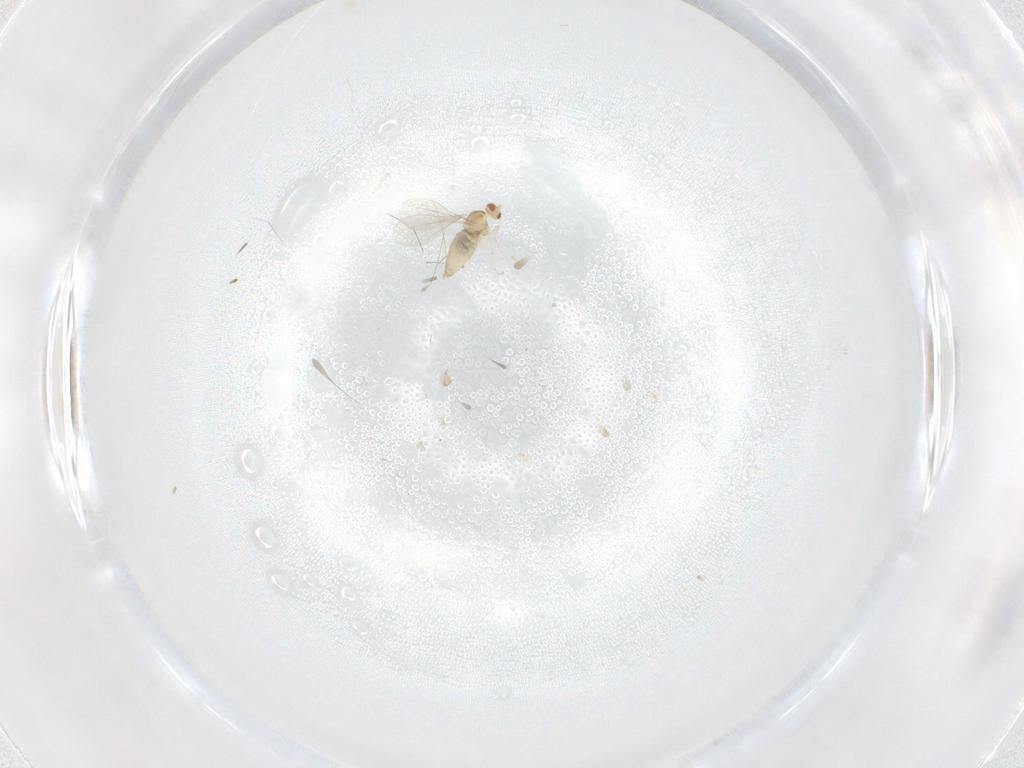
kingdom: Animalia
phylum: Arthropoda
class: Insecta
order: Diptera
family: Cecidomyiidae
